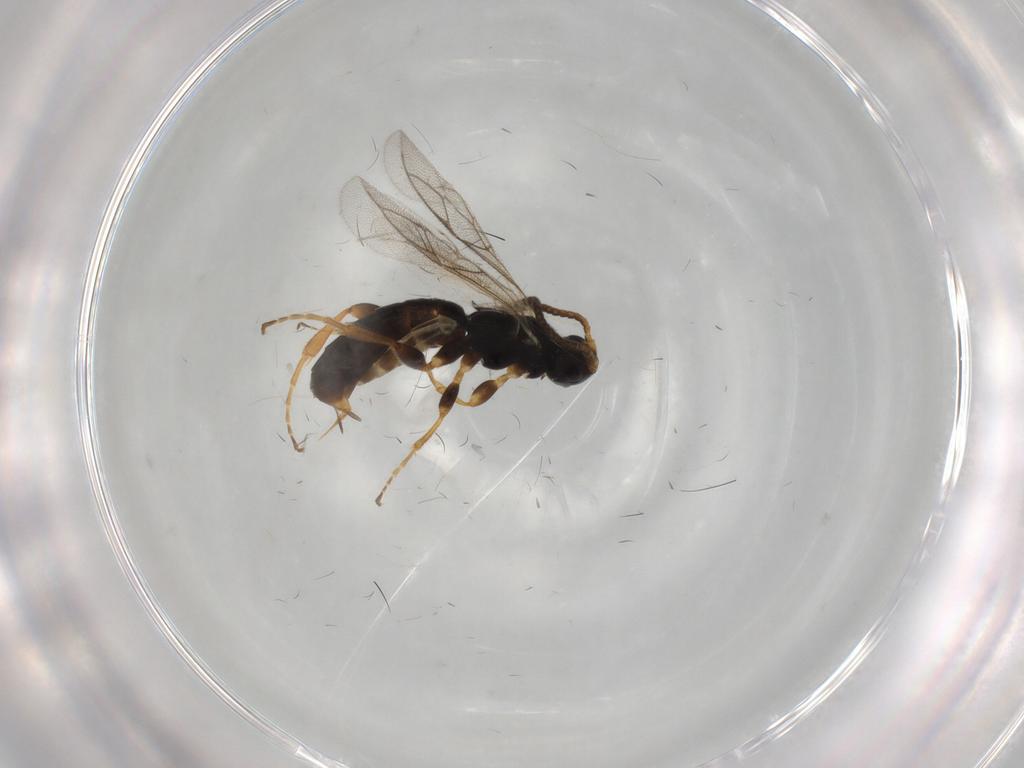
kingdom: Animalia
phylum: Arthropoda
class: Insecta
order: Hymenoptera
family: Ichneumonidae
